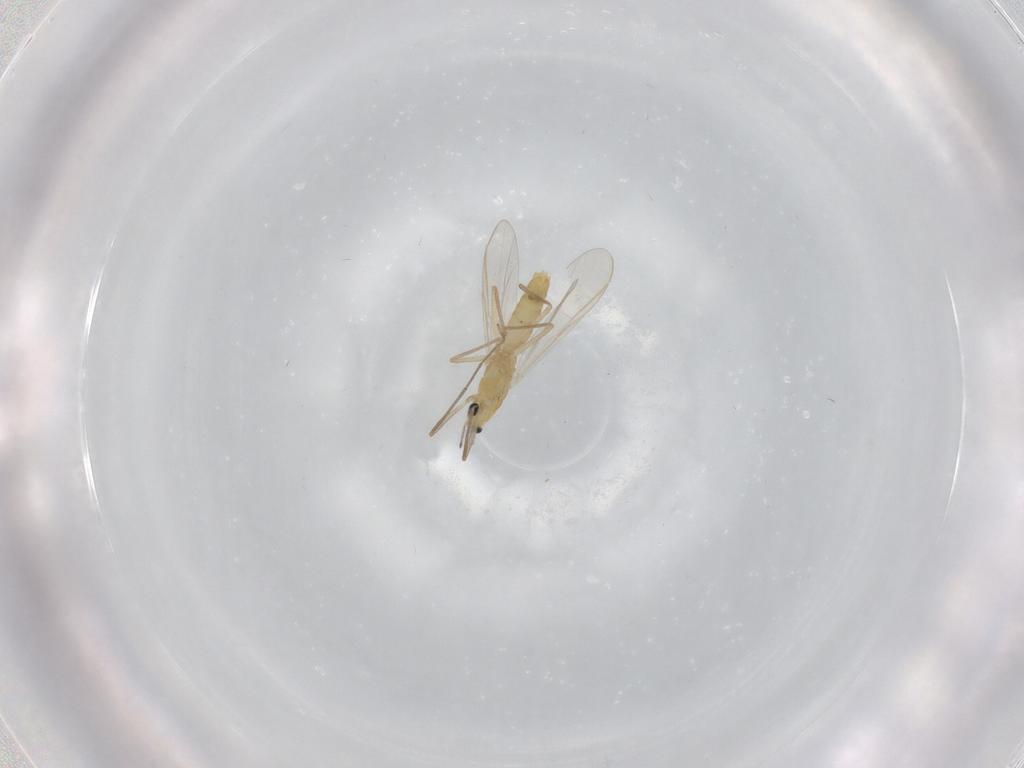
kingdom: Animalia
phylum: Arthropoda
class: Insecta
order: Diptera
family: Chironomidae
